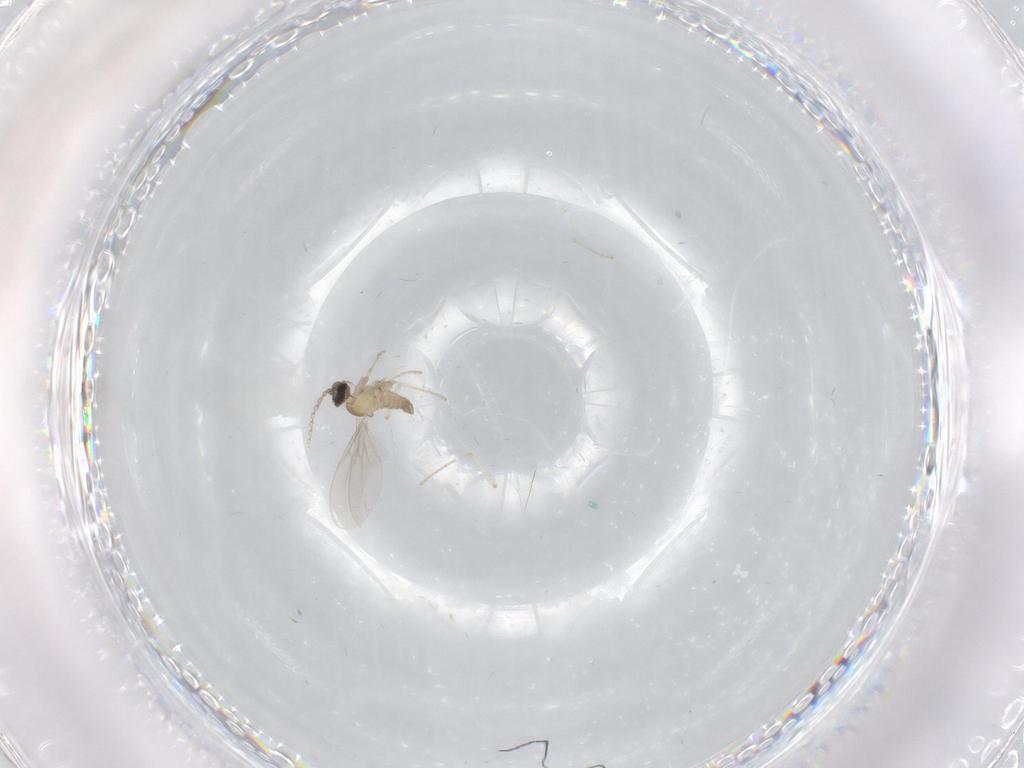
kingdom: Animalia
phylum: Arthropoda
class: Insecta
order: Diptera
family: Cecidomyiidae
